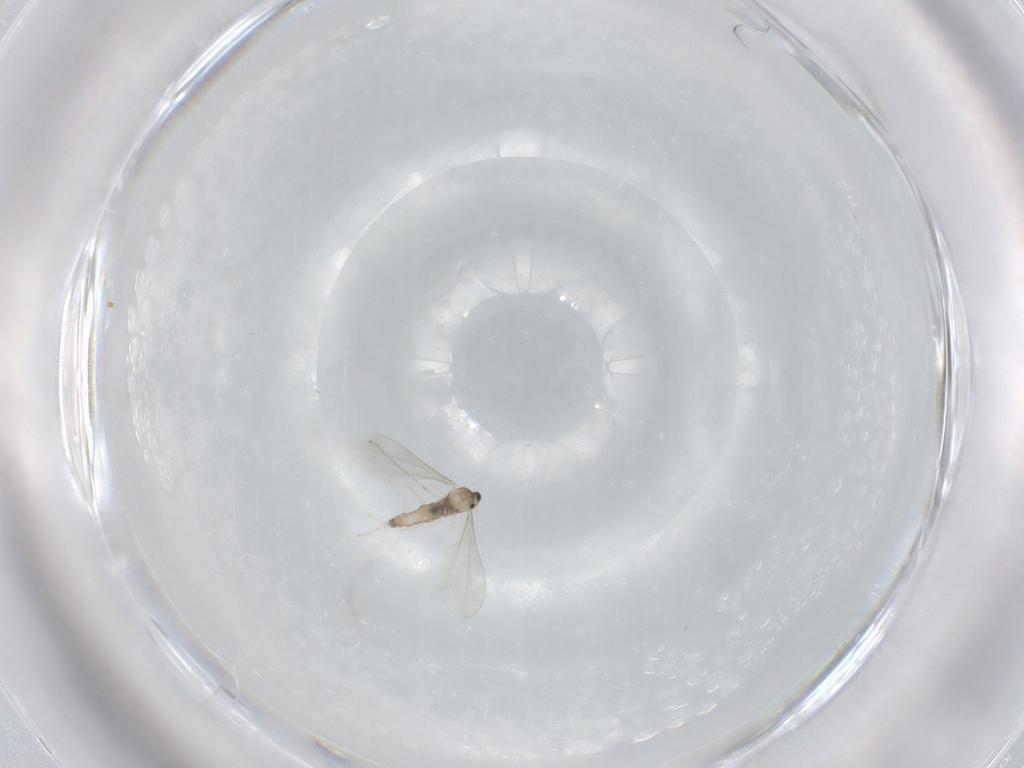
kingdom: Animalia
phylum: Arthropoda
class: Insecta
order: Diptera
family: Cecidomyiidae
